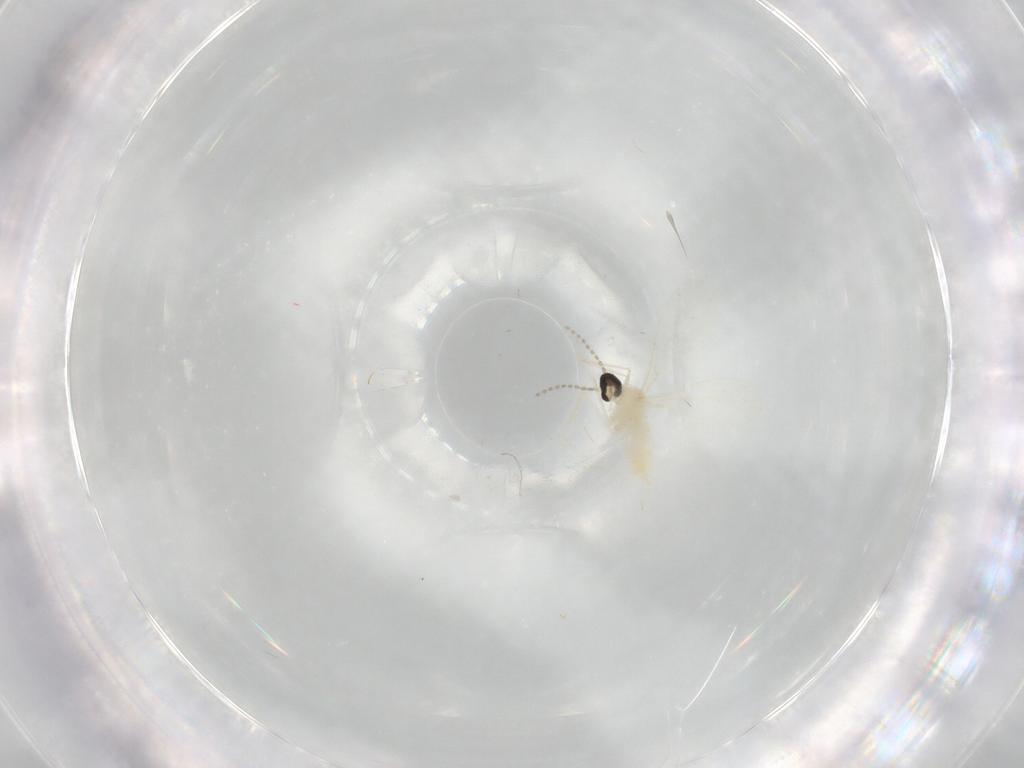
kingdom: Animalia
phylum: Arthropoda
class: Insecta
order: Diptera
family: Cecidomyiidae
